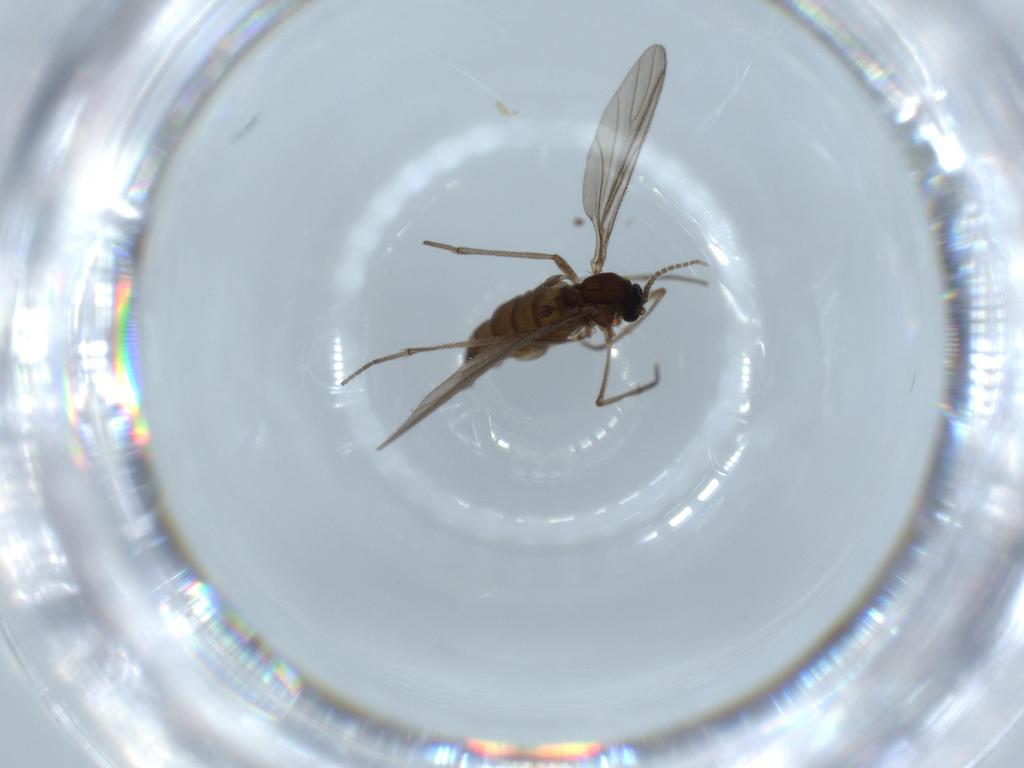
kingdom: Animalia
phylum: Arthropoda
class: Insecta
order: Diptera
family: Sciaridae
